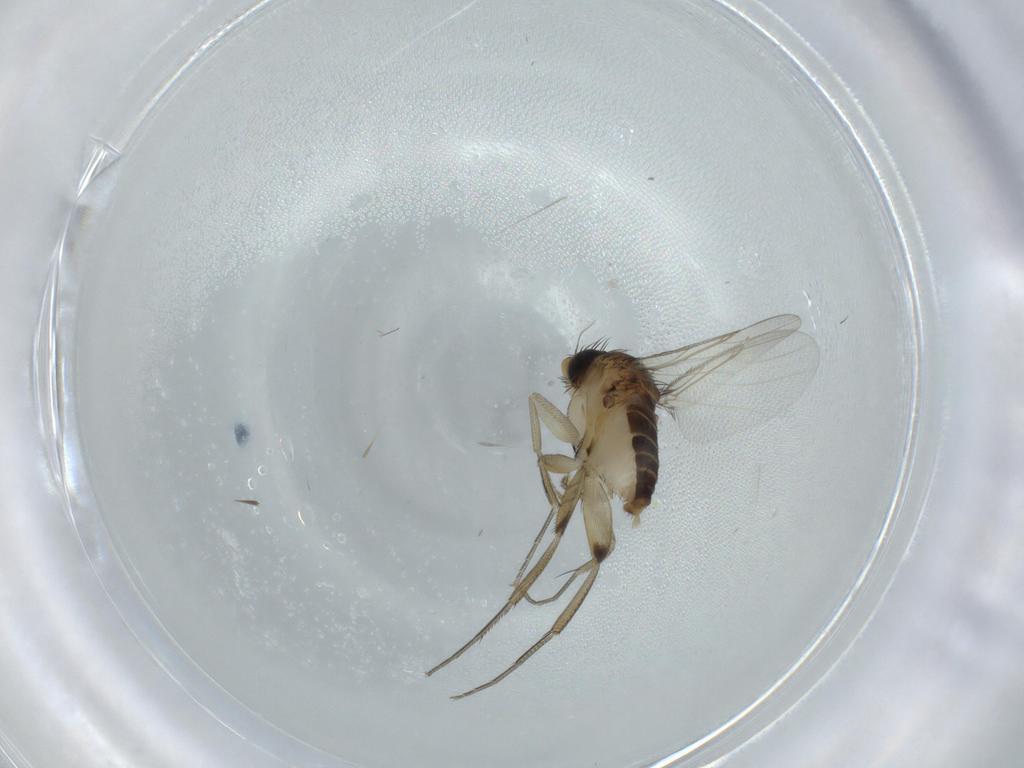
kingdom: Animalia
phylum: Arthropoda
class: Insecta
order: Diptera
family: Phoridae
